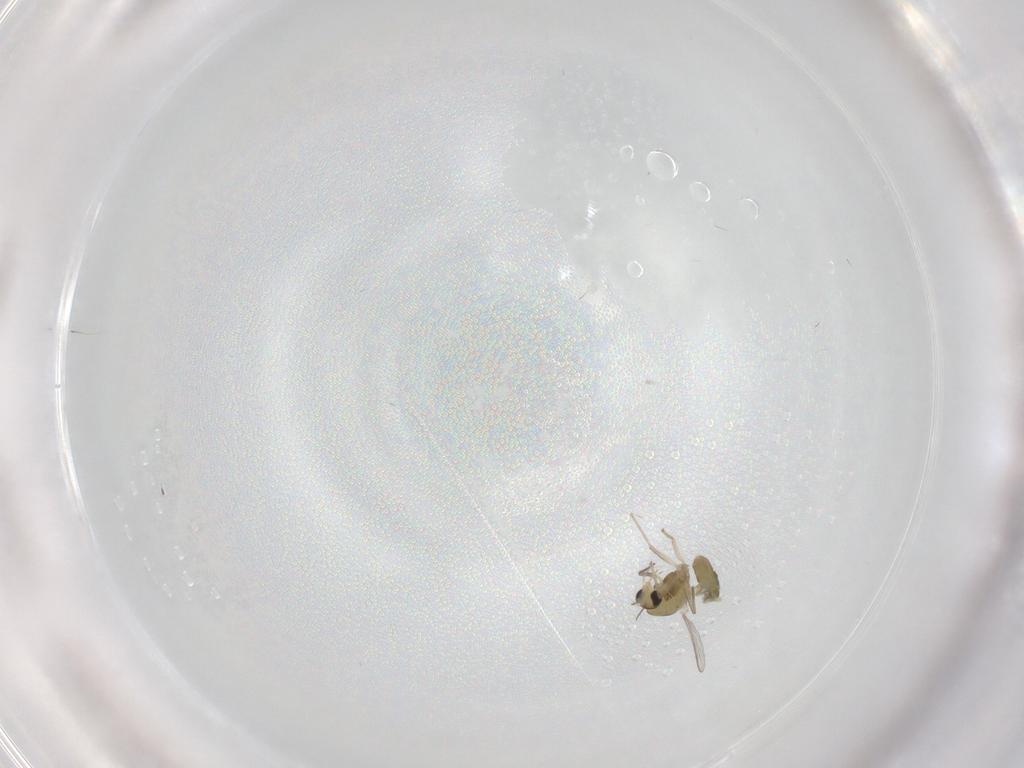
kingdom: Animalia
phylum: Arthropoda
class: Insecta
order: Diptera
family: Chironomidae
